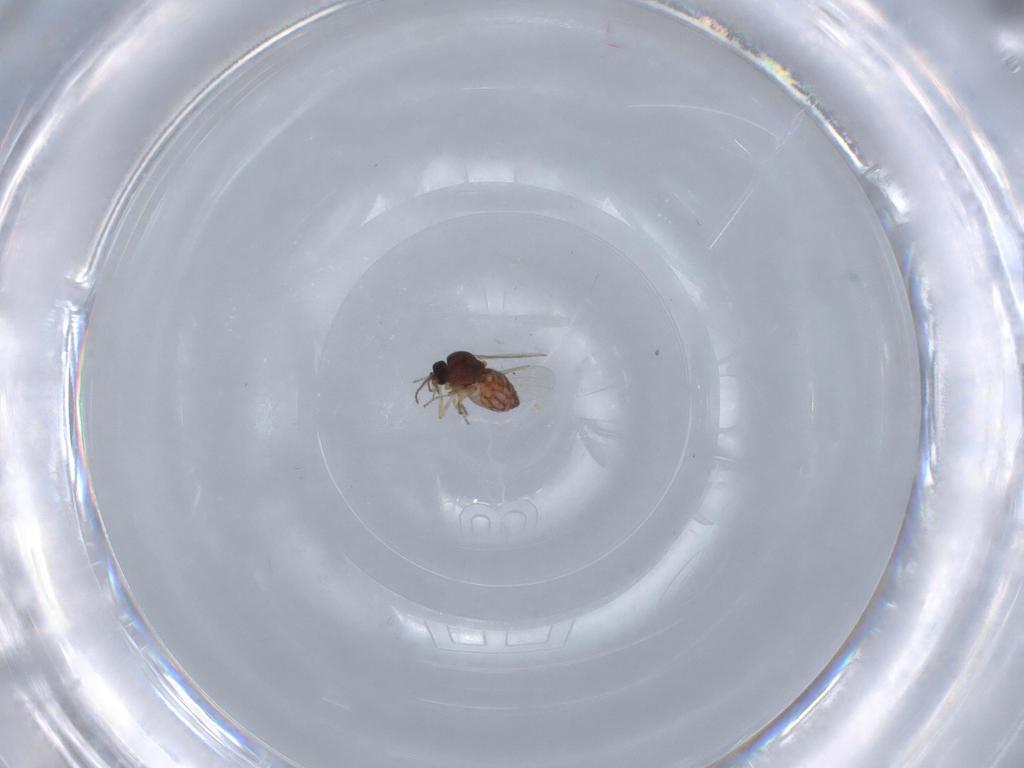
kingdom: Animalia
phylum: Arthropoda
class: Insecta
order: Diptera
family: Ceratopogonidae
